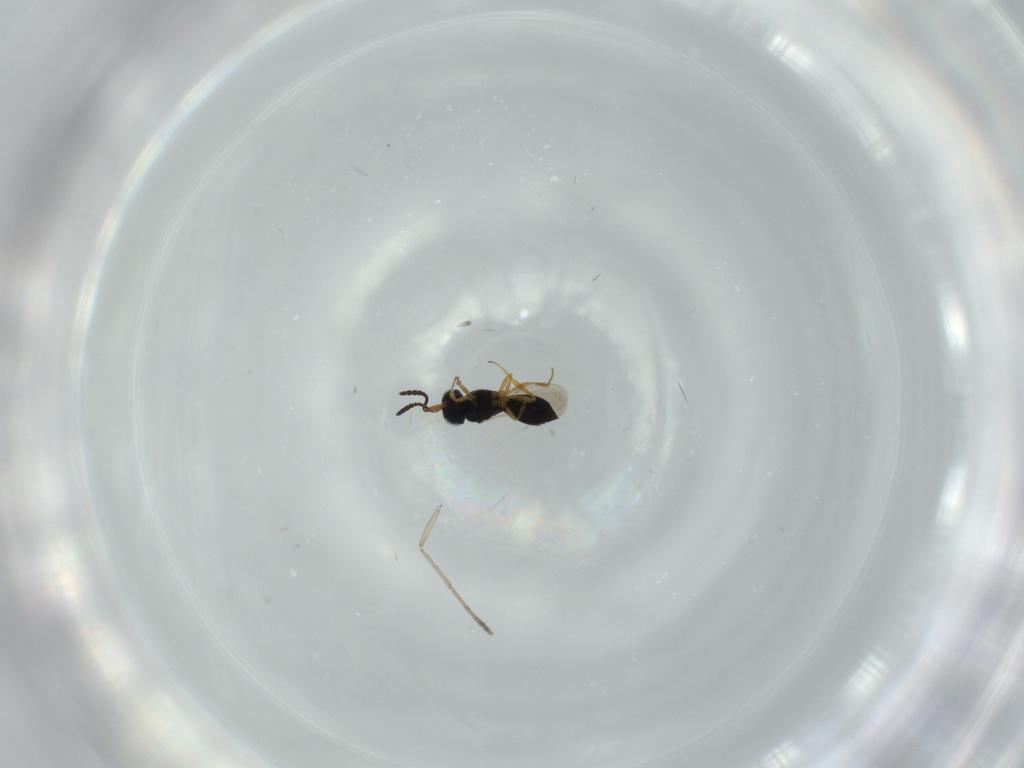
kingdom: Animalia
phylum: Arthropoda
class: Insecta
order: Hymenoptera
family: Scelionidae
